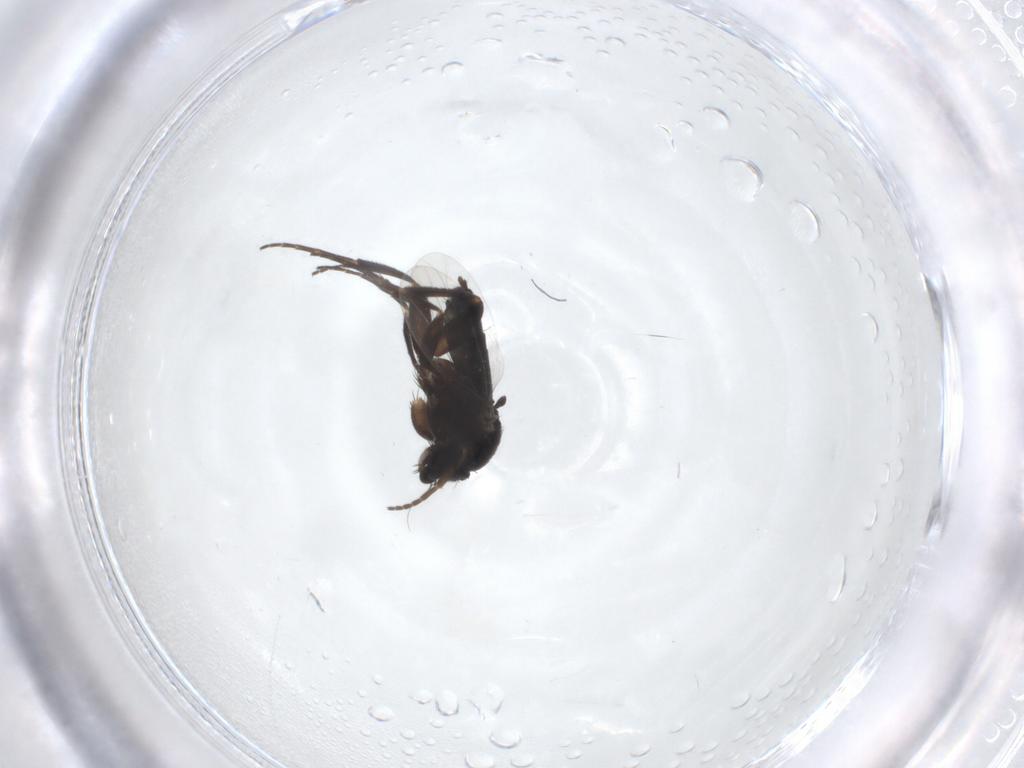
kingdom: Animalia
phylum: Arthropoda
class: Insecta
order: Diptera
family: Phoridae
